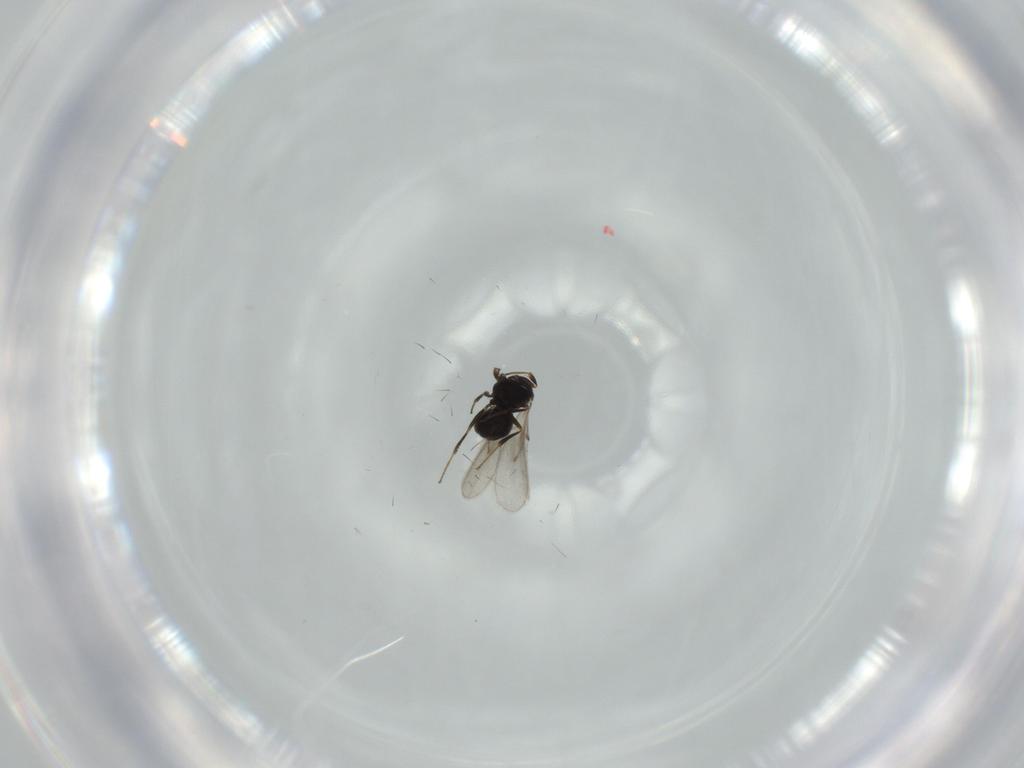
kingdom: Animalia
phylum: Arthropoda
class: Insecta
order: Hymenoptera
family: Scelionidae
